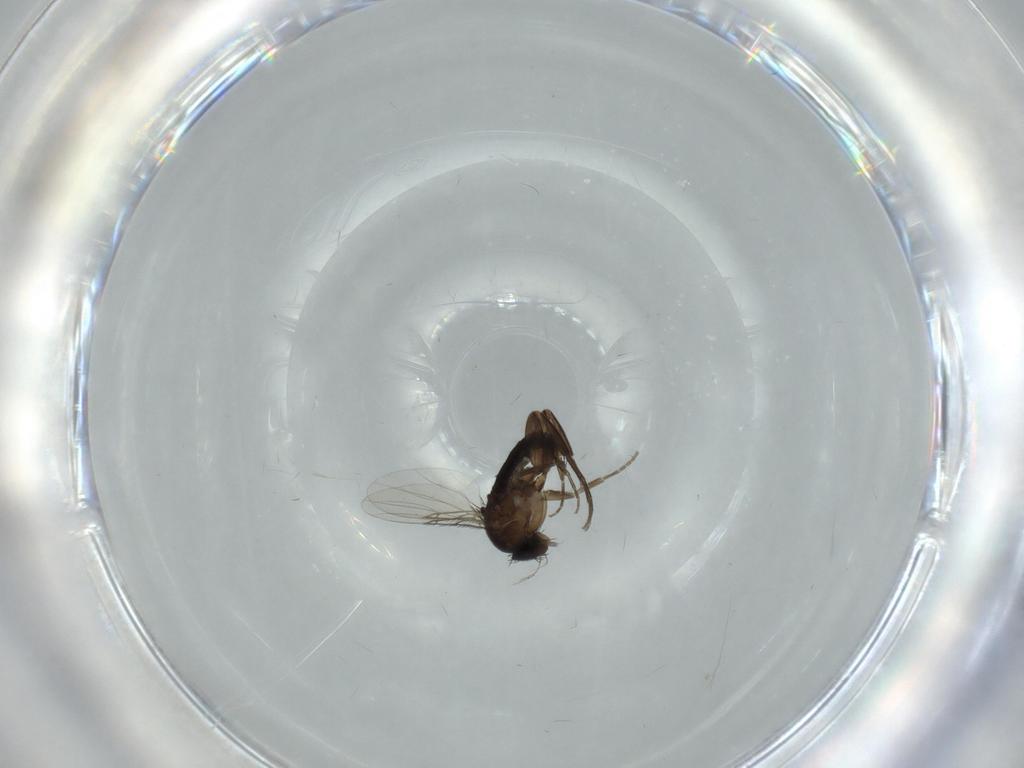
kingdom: Animalia
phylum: Arthropoda
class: Insecta
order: Diptera
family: Phoridae
